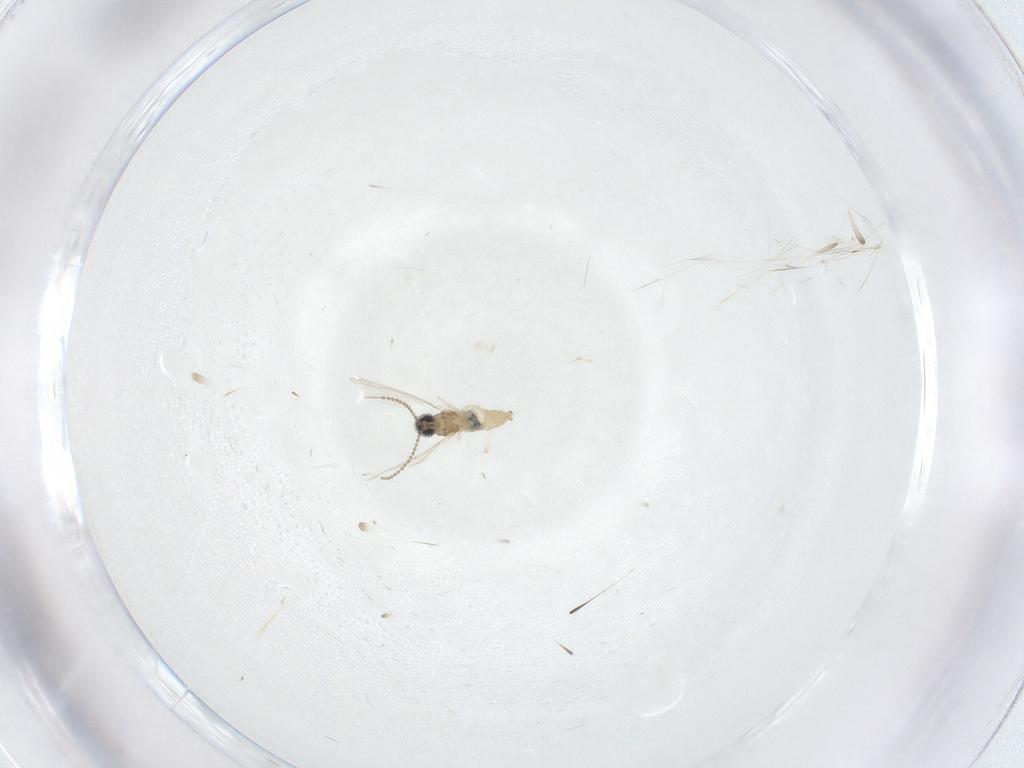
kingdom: Animalia
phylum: Arthropoda
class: Insecta
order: Diptera
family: Cecidomyiidae
